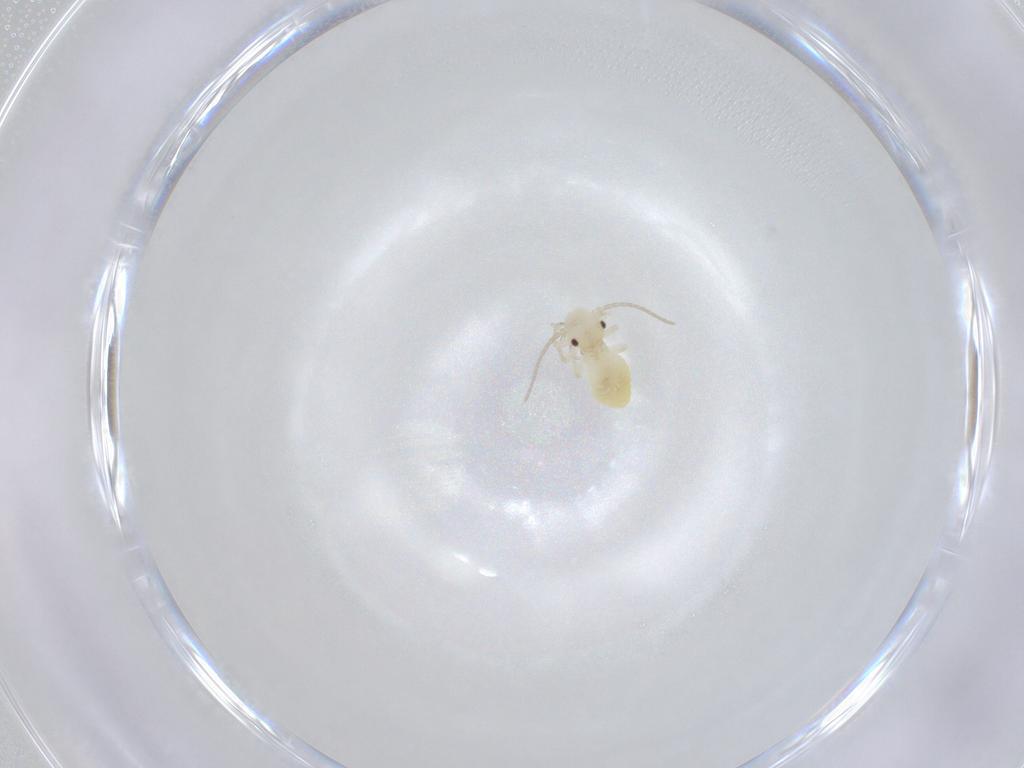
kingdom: Animalia
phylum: Arthropoda
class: Insecta
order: Psocodea
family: Caeciliusidae
